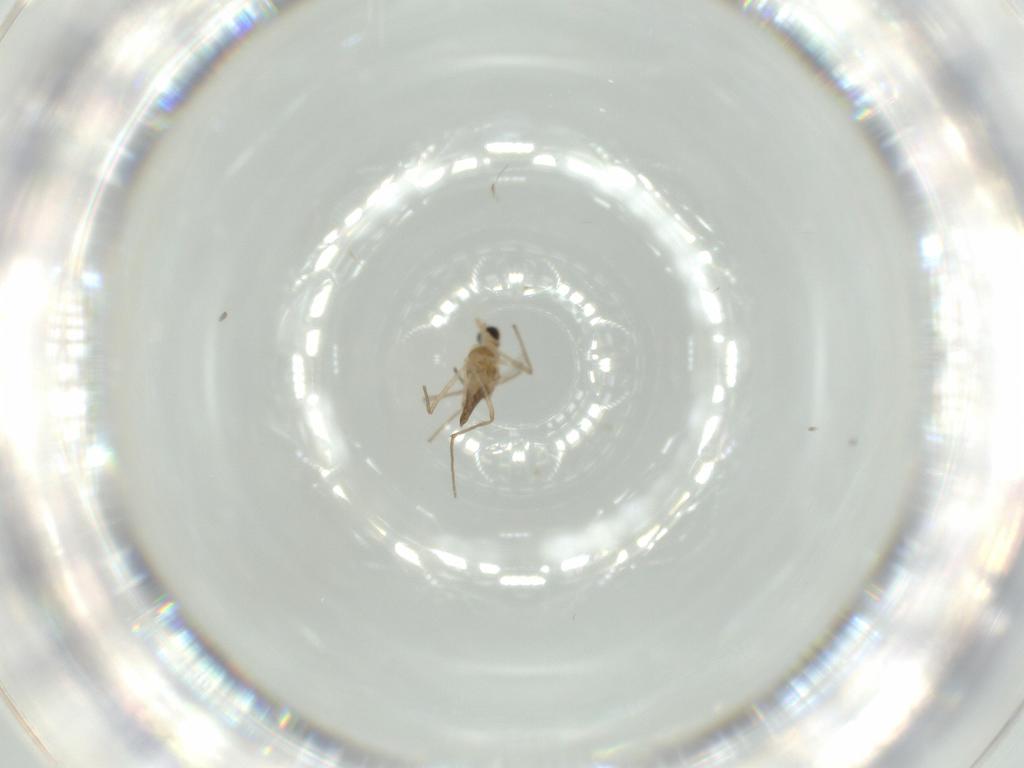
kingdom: Animalia
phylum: Arthropoda
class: Insecta
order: Diptera
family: Chironomidae
